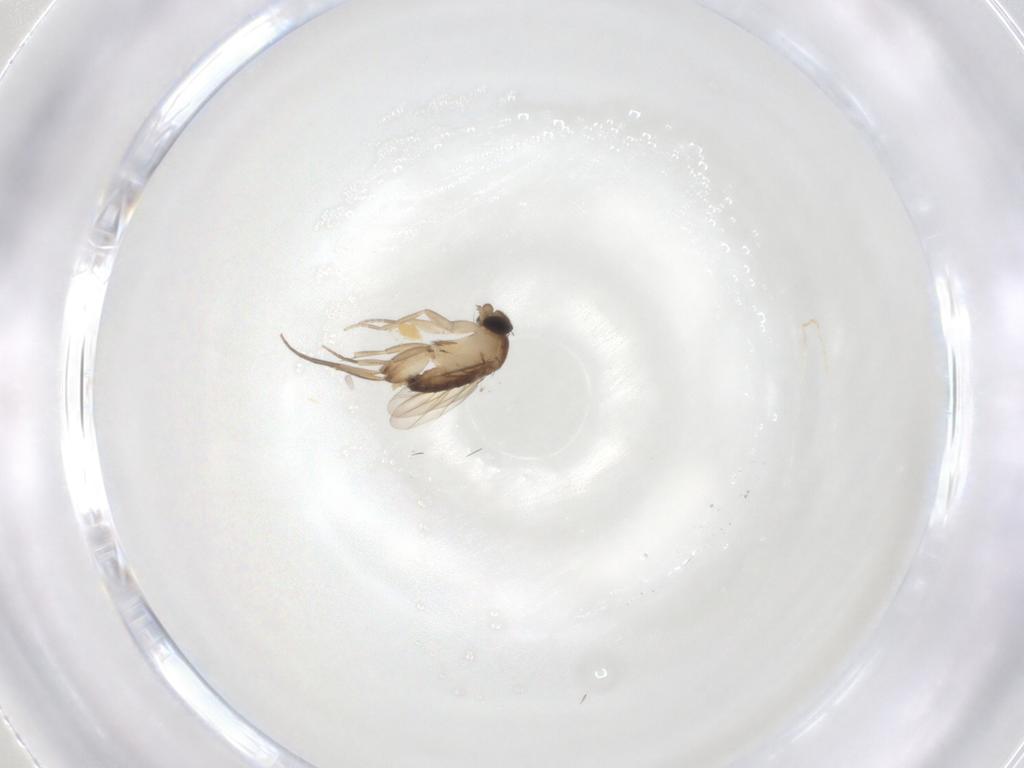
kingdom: Animalia
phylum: Arthropoda
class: Insecta
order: Diptera
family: Phoridae
